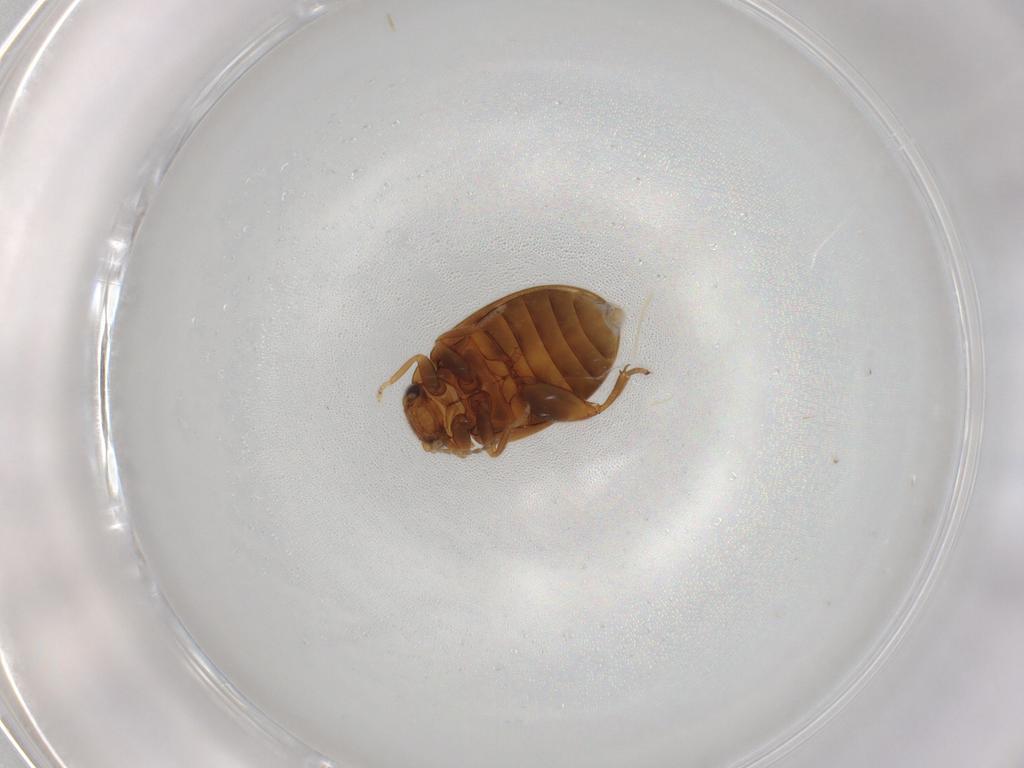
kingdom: Animalia
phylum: Arthropoda
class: Insecta
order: Coleoptera
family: Scirtidae
